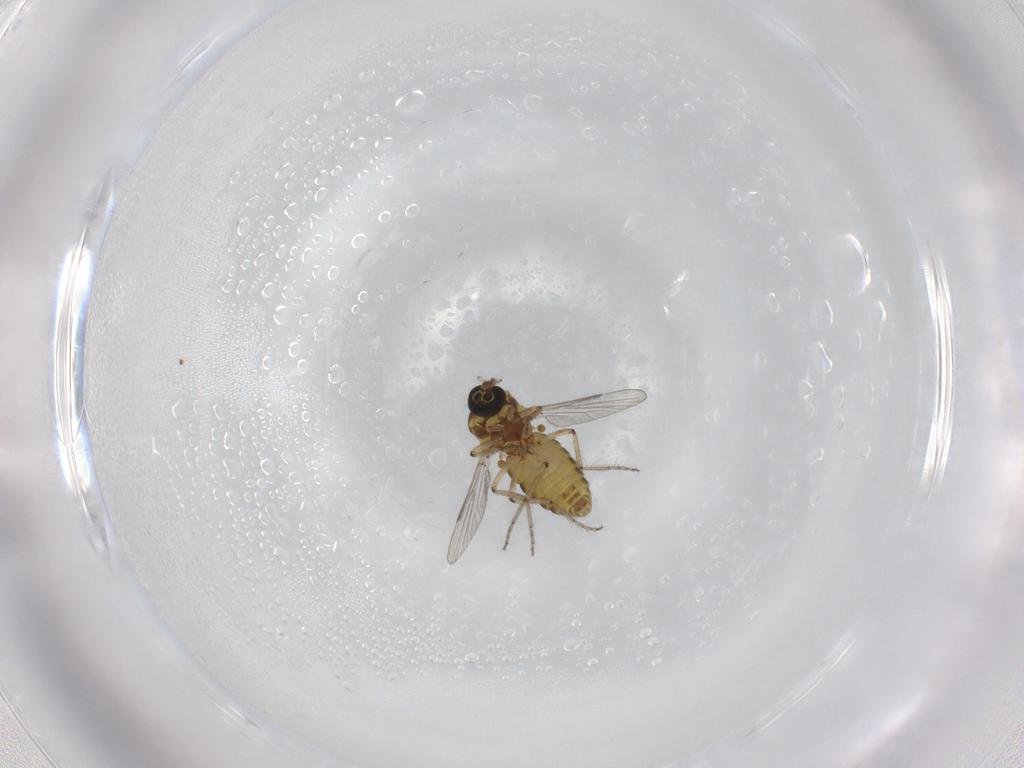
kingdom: Animalia
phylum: Arthropoda
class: Insecta
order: Diptera
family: Ceratopogonidae
